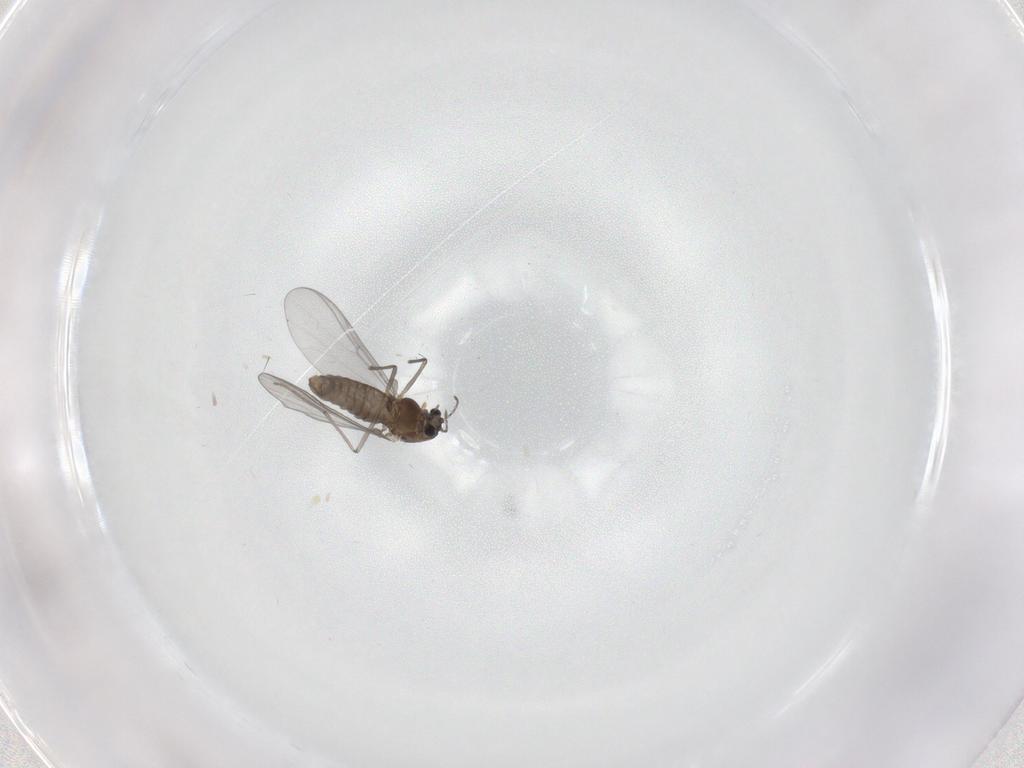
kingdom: Animalia
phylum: Arthropoda
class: Insecta
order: Diptera
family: Chironomidae
